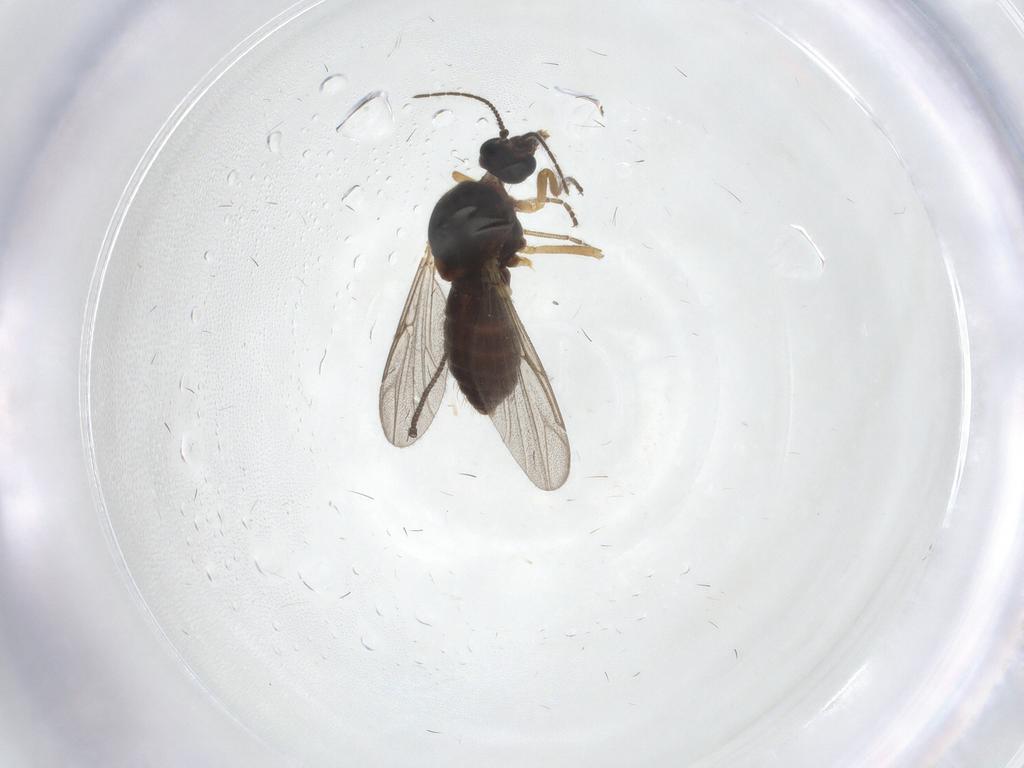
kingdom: Animalia
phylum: Arthropoda
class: Insecta
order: Diptera
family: Ceratopogonidae
